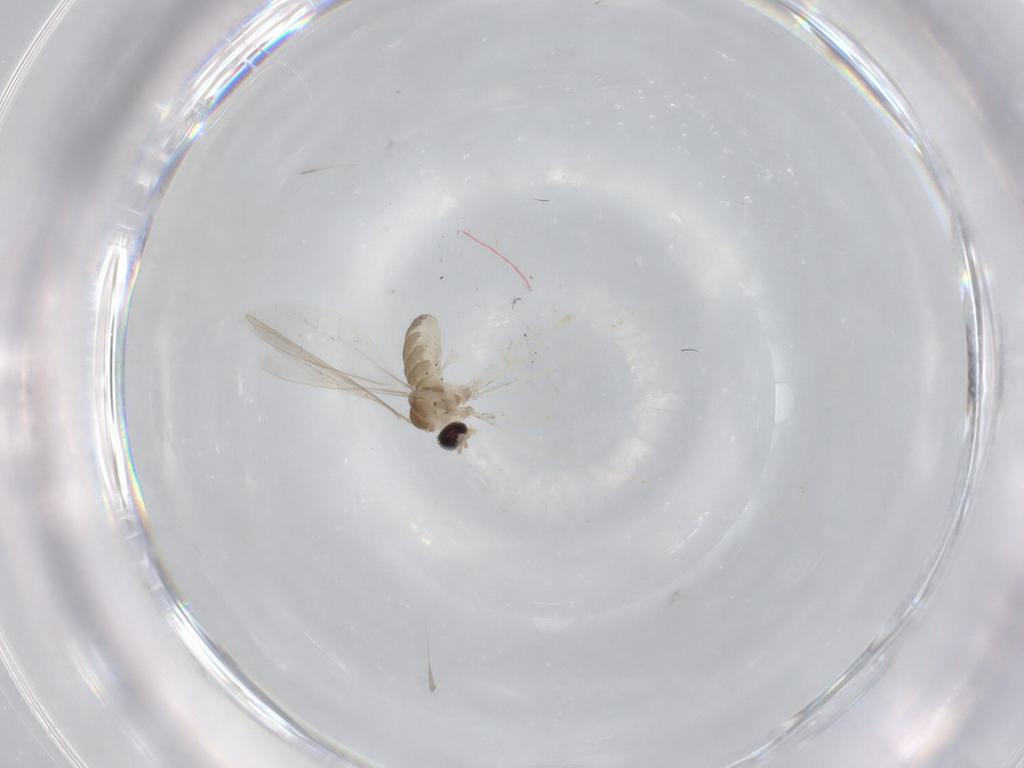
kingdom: Animalia
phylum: Arthropoda
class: Insecta
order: Diptera
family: Cecidomyiidae
